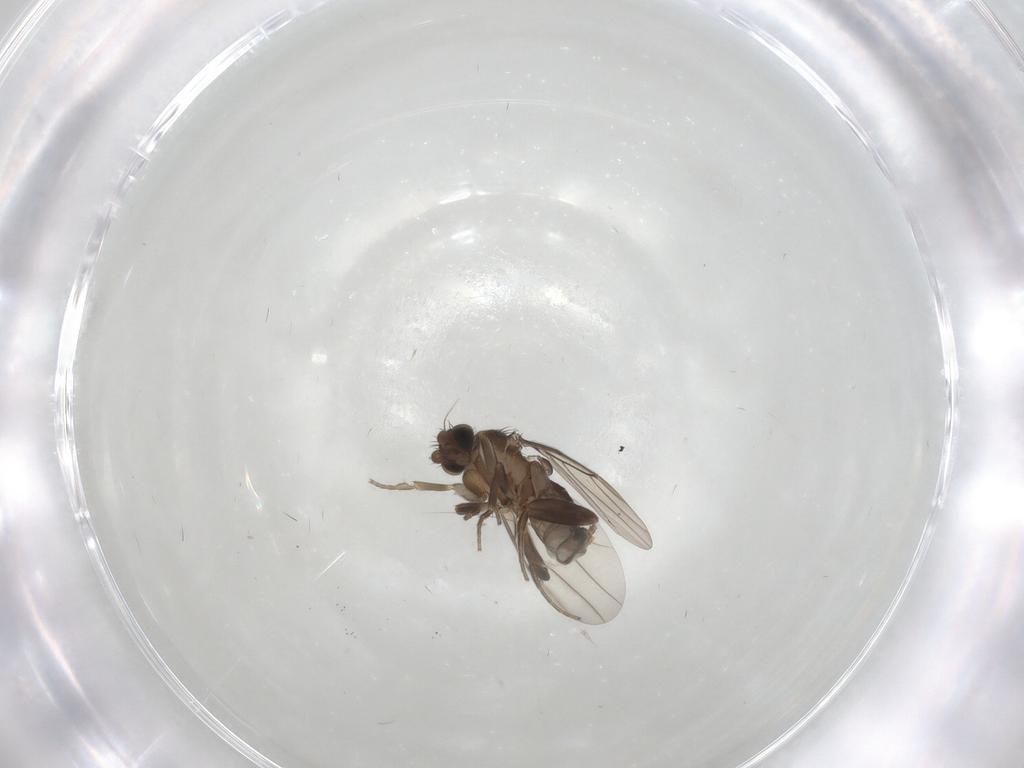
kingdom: Animalia
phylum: Arthropoda
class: Insecta
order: Diptera
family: Phoridae
